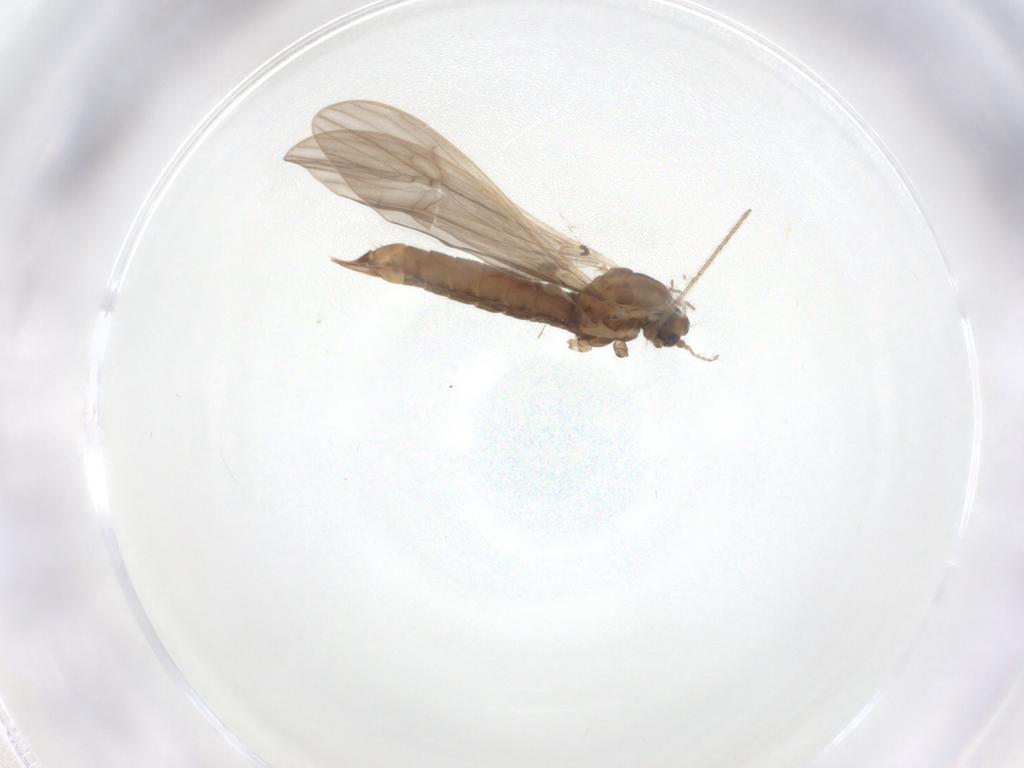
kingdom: Animalia
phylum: Arthropoda
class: Insecta
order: Diptera
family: Limoniidae
